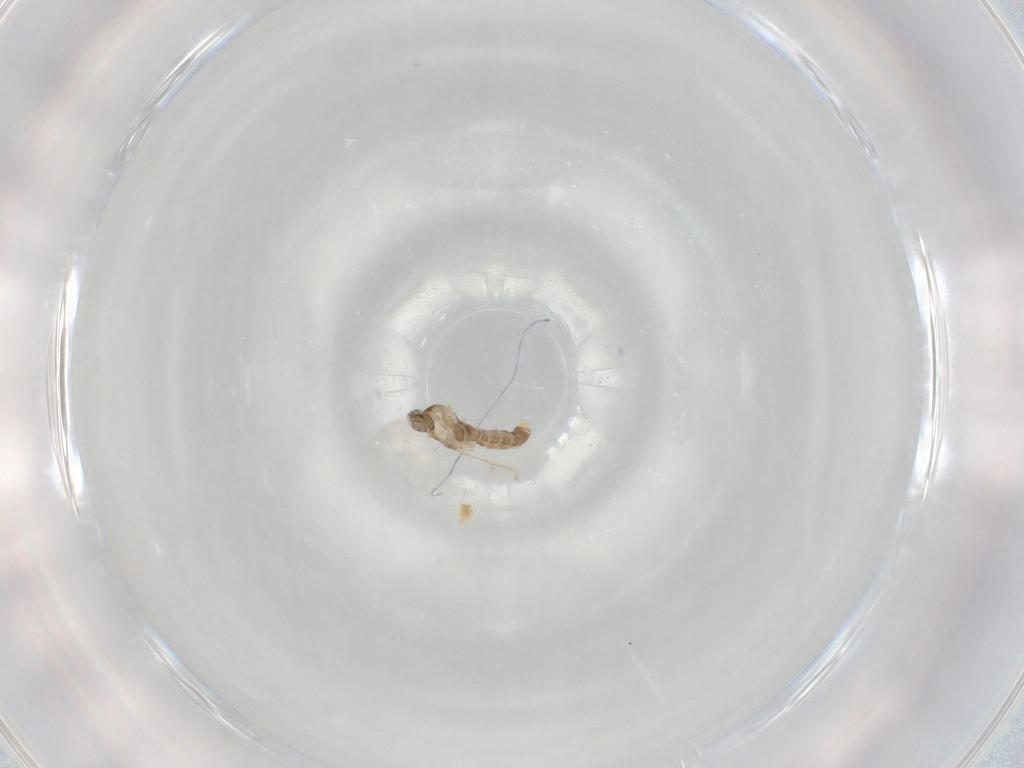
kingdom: Animalia
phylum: Arthropoda
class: Insecta
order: Diptera
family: Cecidomyiidae
